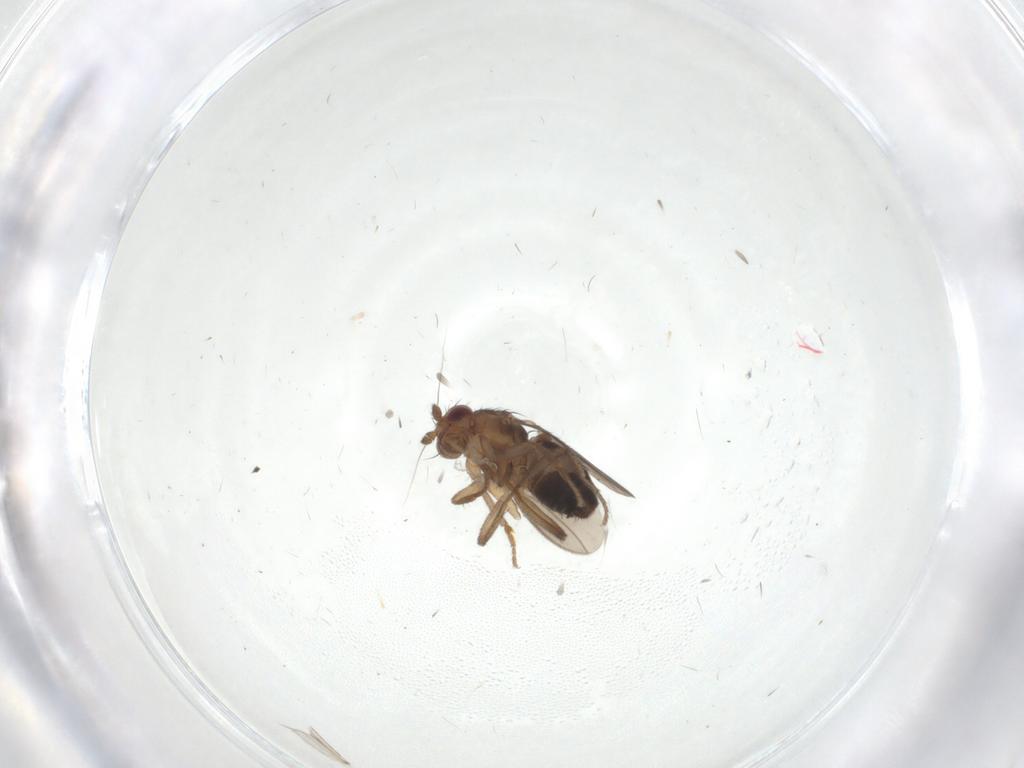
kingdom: Animalia
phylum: Arthropoda
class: Insecta
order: Diptera
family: Sphaeroceridae
